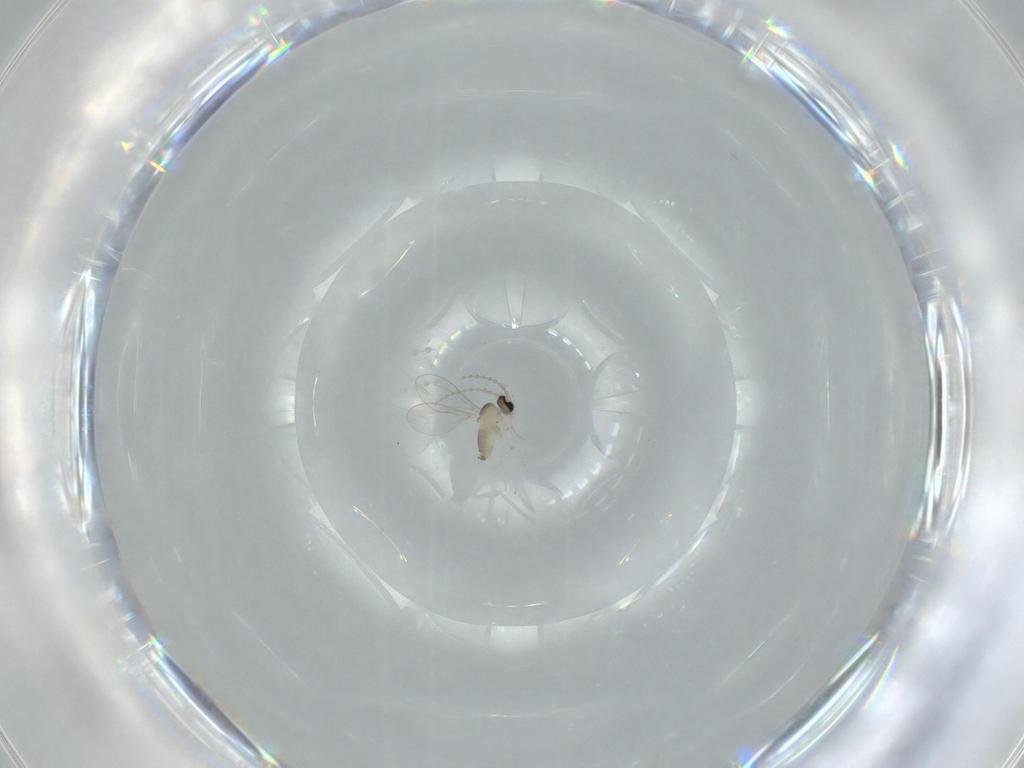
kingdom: Animalia
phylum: Arthropoda
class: Insecta
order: Diptera
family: Cecidomyiidae
